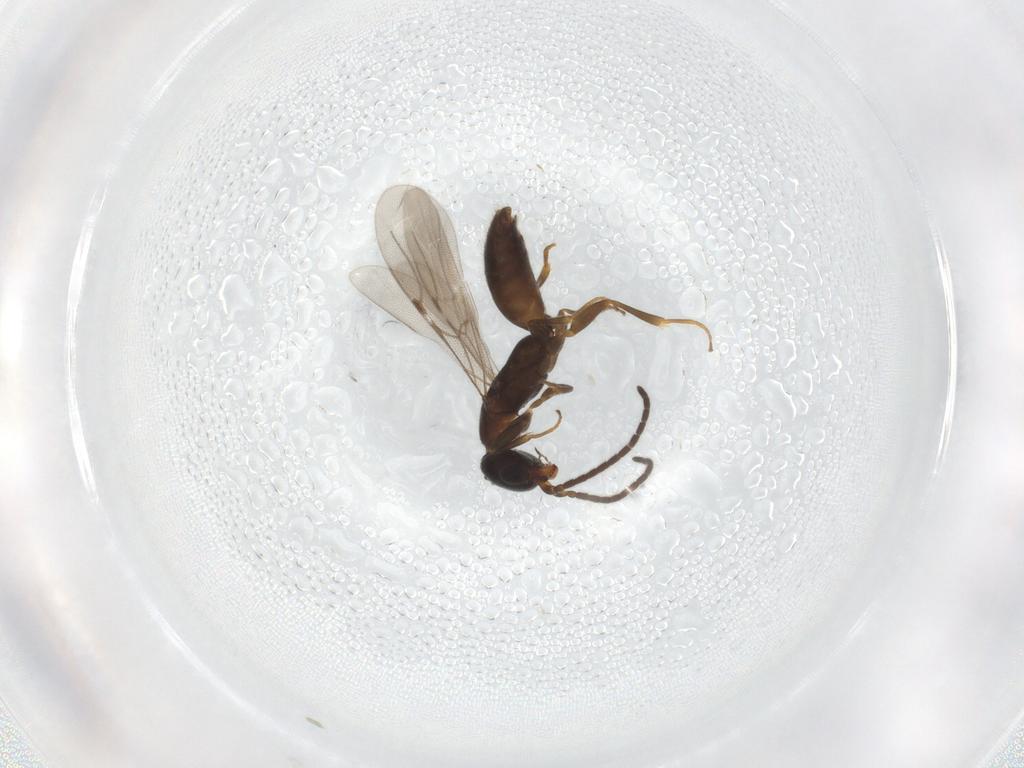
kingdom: Animalia
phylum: Arthropoda
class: Insecta
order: Hymenoptera
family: Bethylidae
